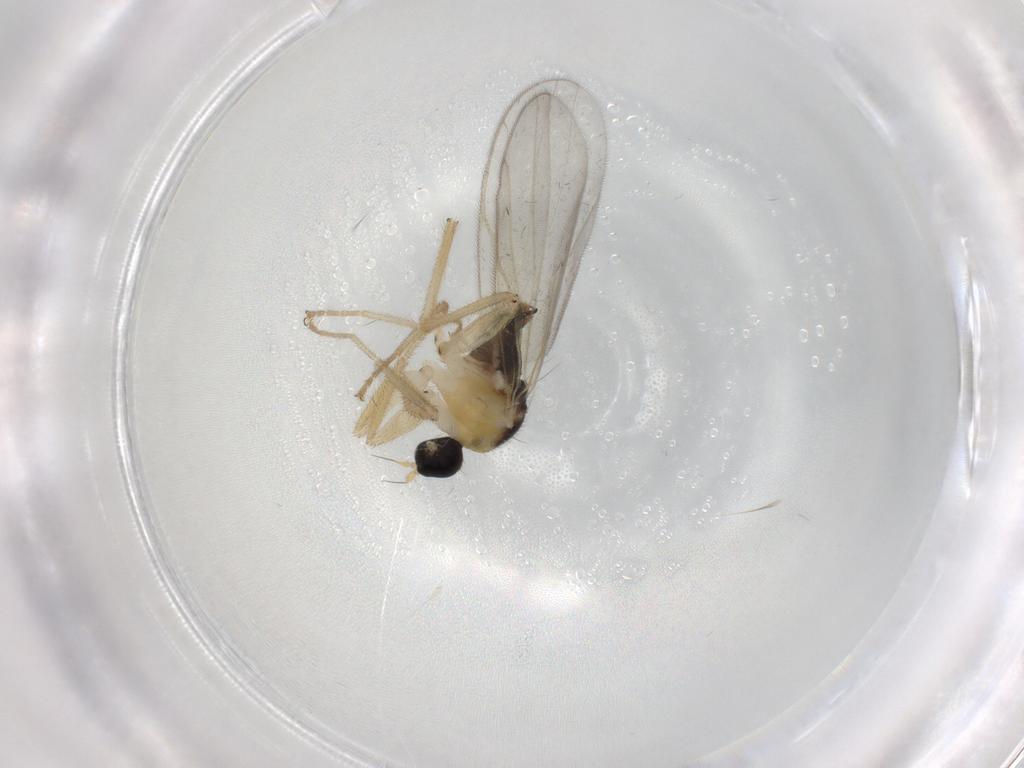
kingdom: Animalia
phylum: Arthropoda
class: Insecta
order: Diptera
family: Hybotidae
